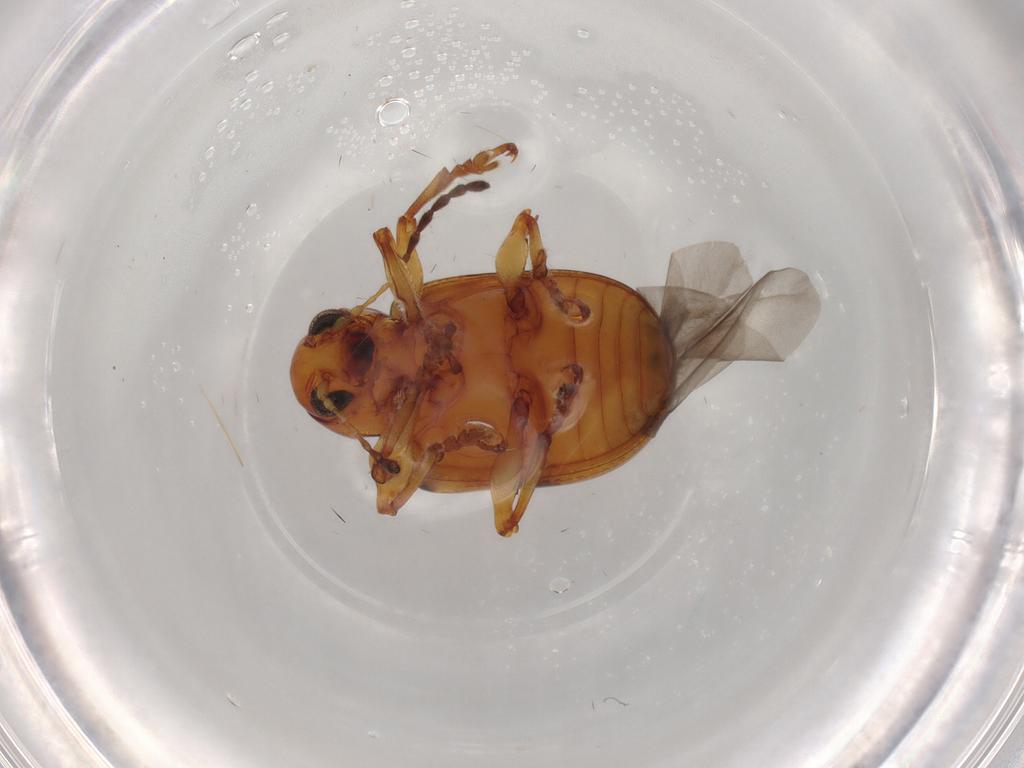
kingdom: Animalia
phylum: Arthropoda
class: Insecta
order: Coleoptera
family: Chrysomelidae
